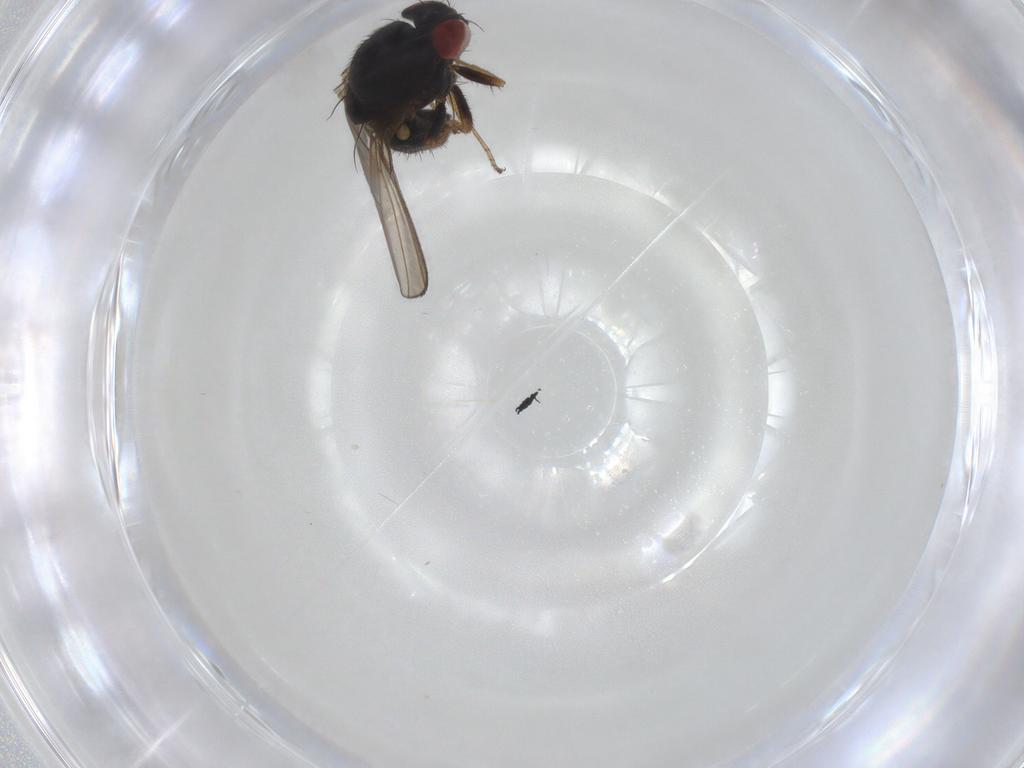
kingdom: Animalia
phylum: Arthropoda
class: Insecta
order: Diptera
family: Drosophilidae
